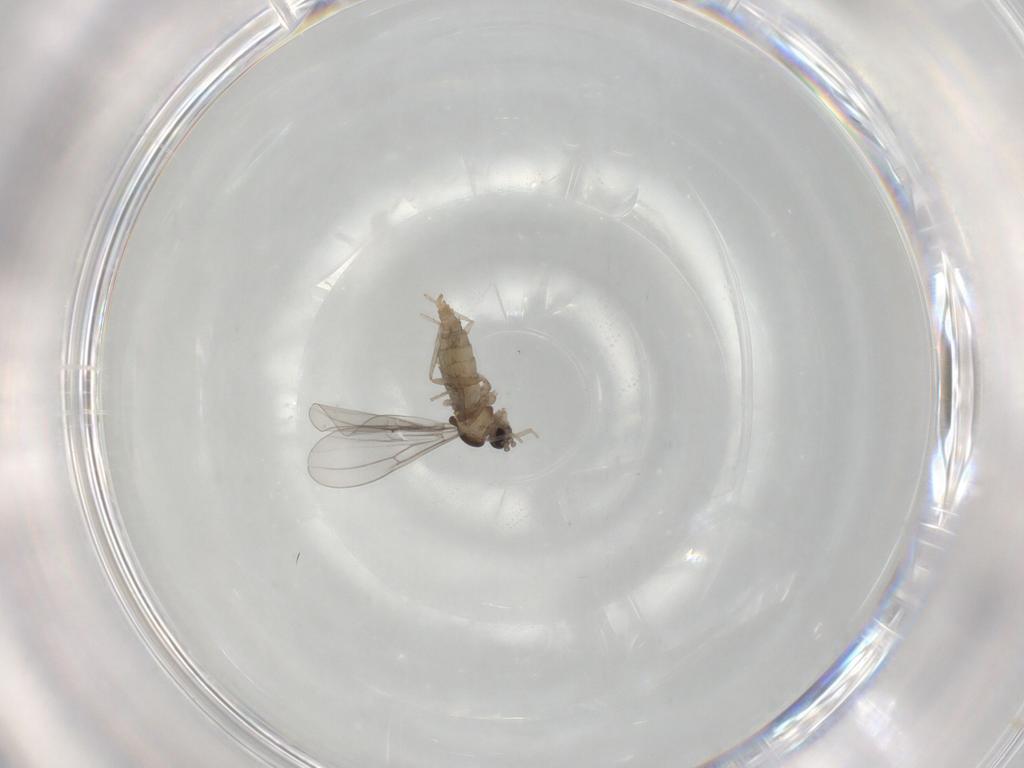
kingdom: Animalia
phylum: Arthropoda
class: Insecta
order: Diptera
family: Cecidomyiidae
